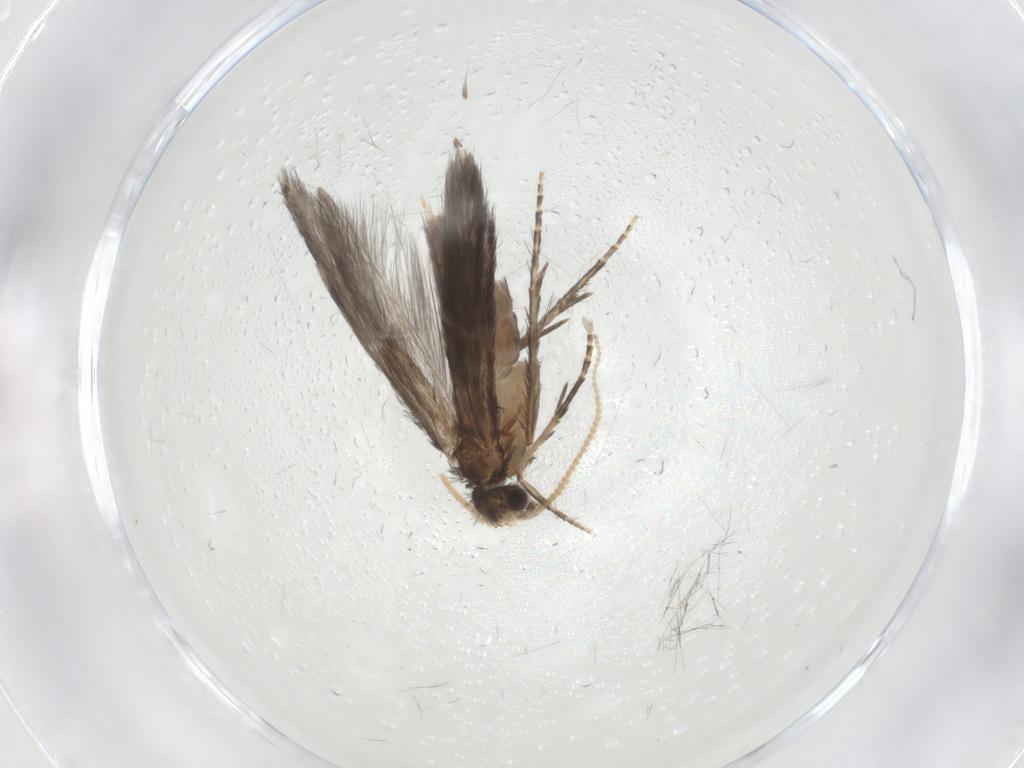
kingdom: Animalia
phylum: Arthropoda
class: Insecta
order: Trichoptera
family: Hydroptilidae
